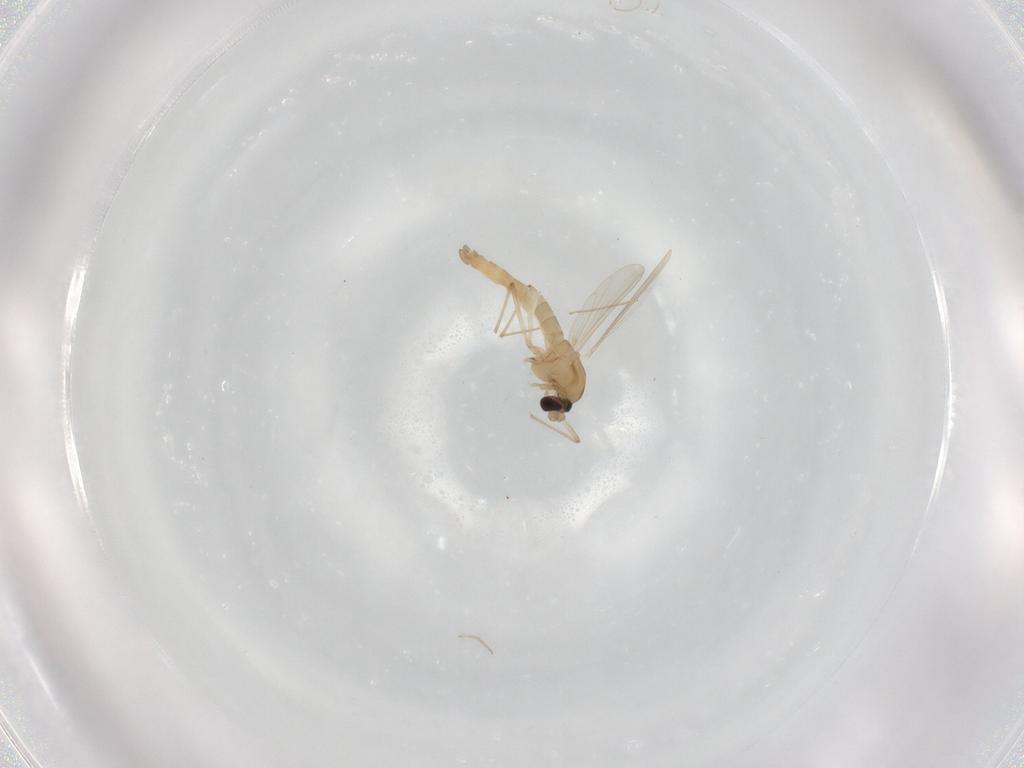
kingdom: Animalia
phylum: Arthropoda
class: Insecta
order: Diptera
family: Chironomidae
